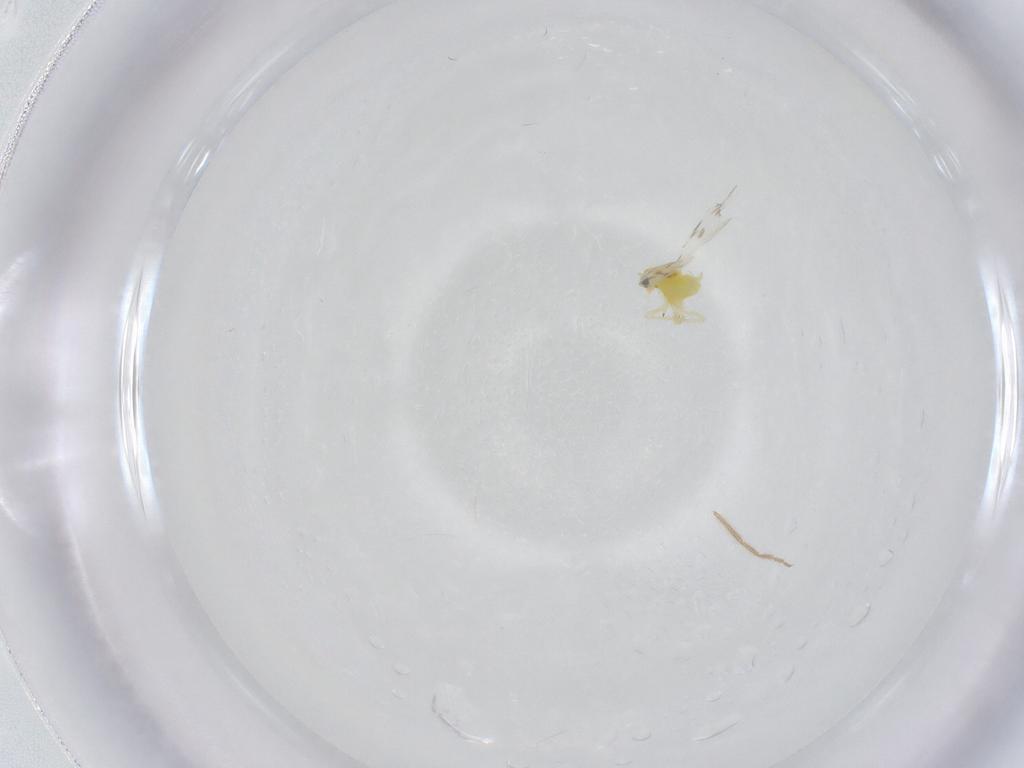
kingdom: Animalia
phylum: Arthropoda
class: Insecta
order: Hemiptera
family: Aleyrodidae
